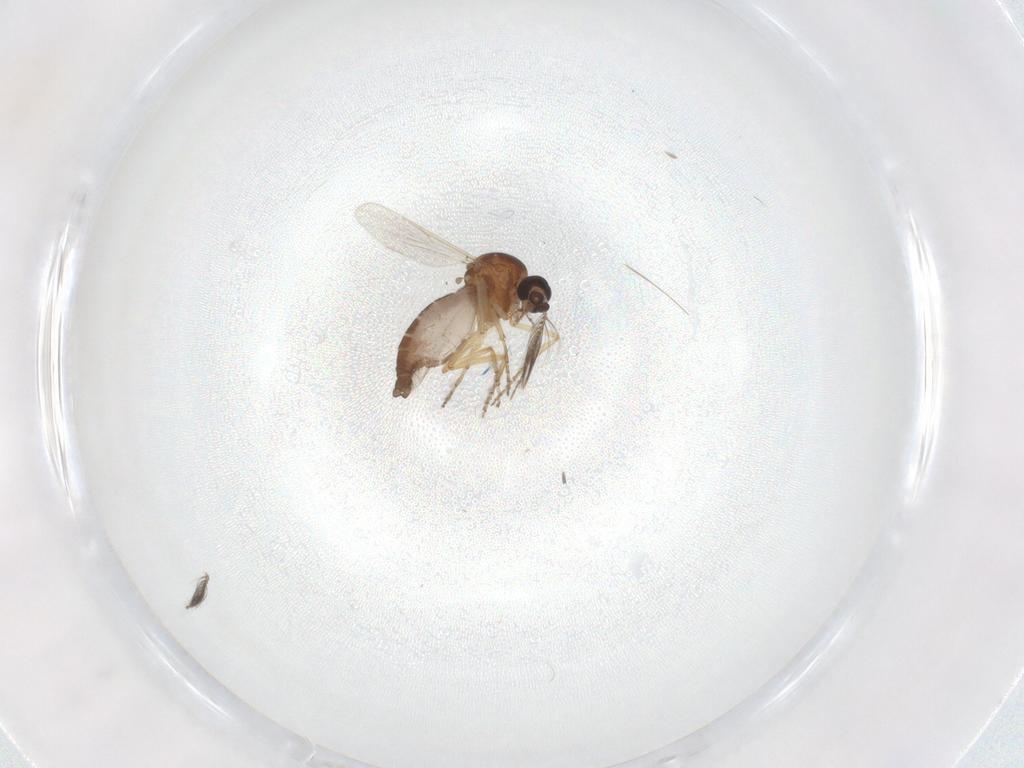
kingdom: Animalia
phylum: Arthropoda
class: Insecta
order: Diptera
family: Ceratopogonidae
